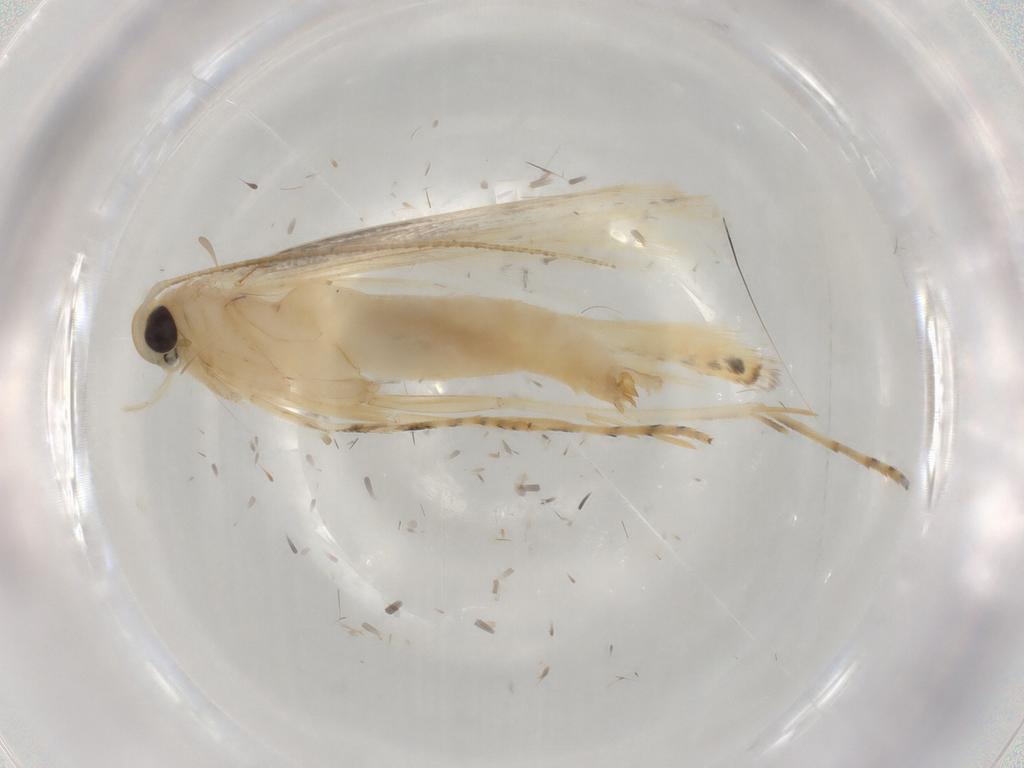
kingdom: Animalia
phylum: Arthropoda
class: Insecta
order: Lepidoptera
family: Elachistidae
